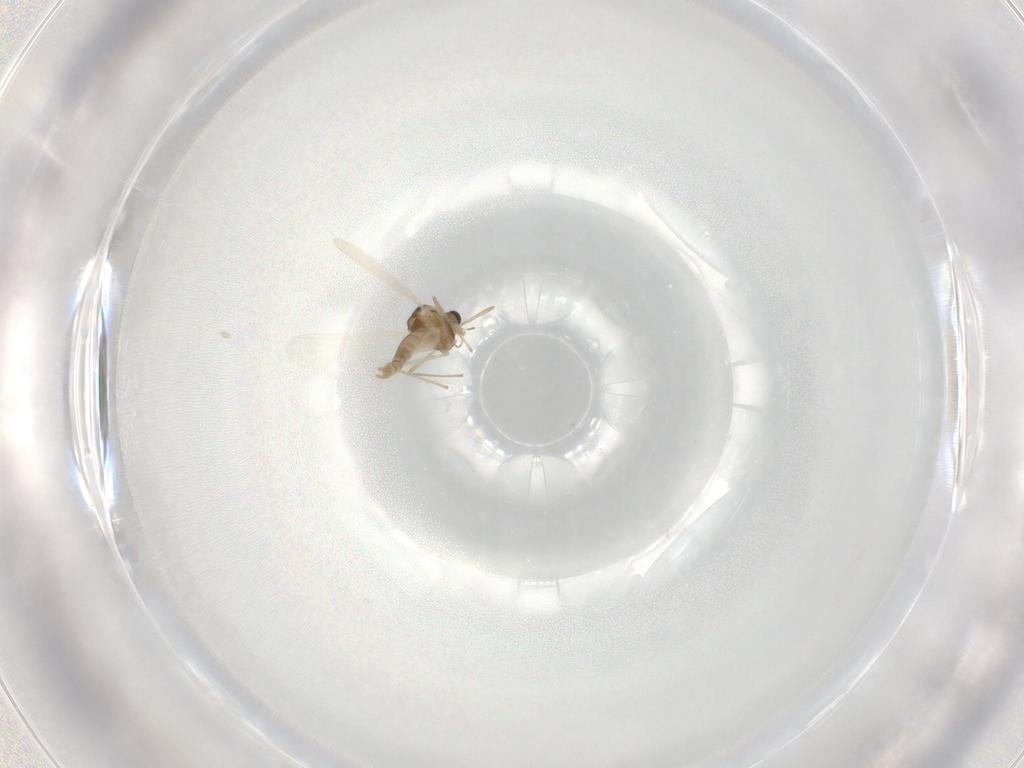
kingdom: Animalia
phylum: Arthropoda
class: Insecta
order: Diptera
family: Chironomidae
